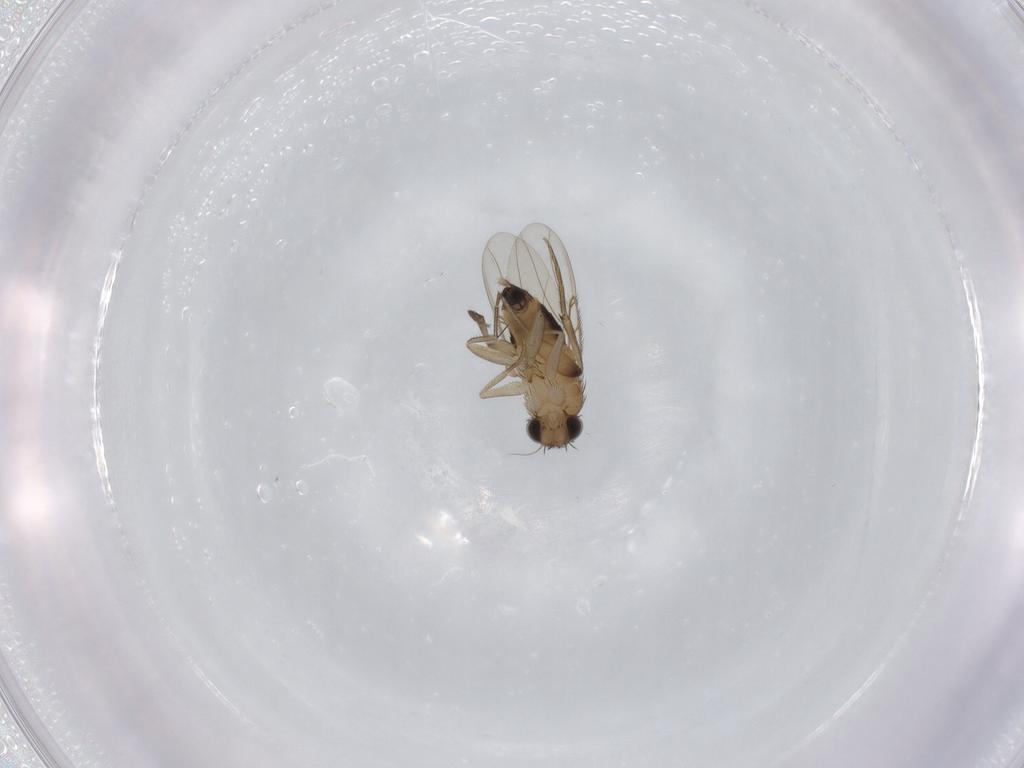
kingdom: Animalia
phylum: Arthropoda
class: Insecta
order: Diptera
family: Phoridae
